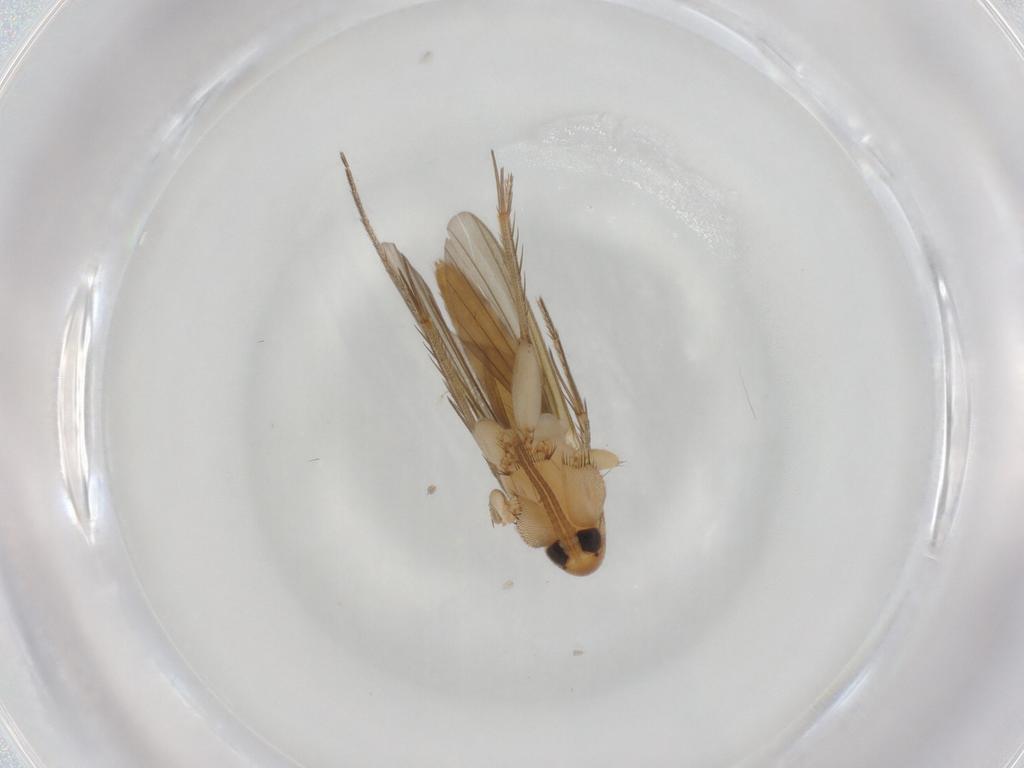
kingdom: Animalia
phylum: Arthropoda
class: Insecta
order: Diptera
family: Mycetophilidae
